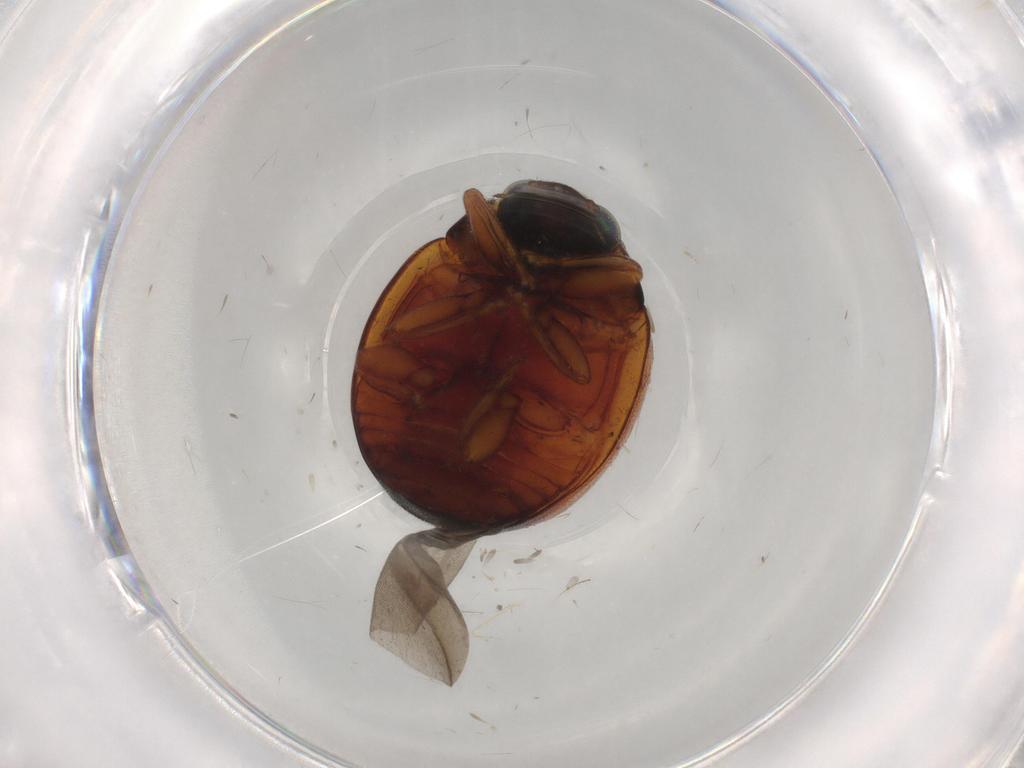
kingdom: Animalia
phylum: Arthropoda
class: Insecta
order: Coleoptera
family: Coccinellidae
